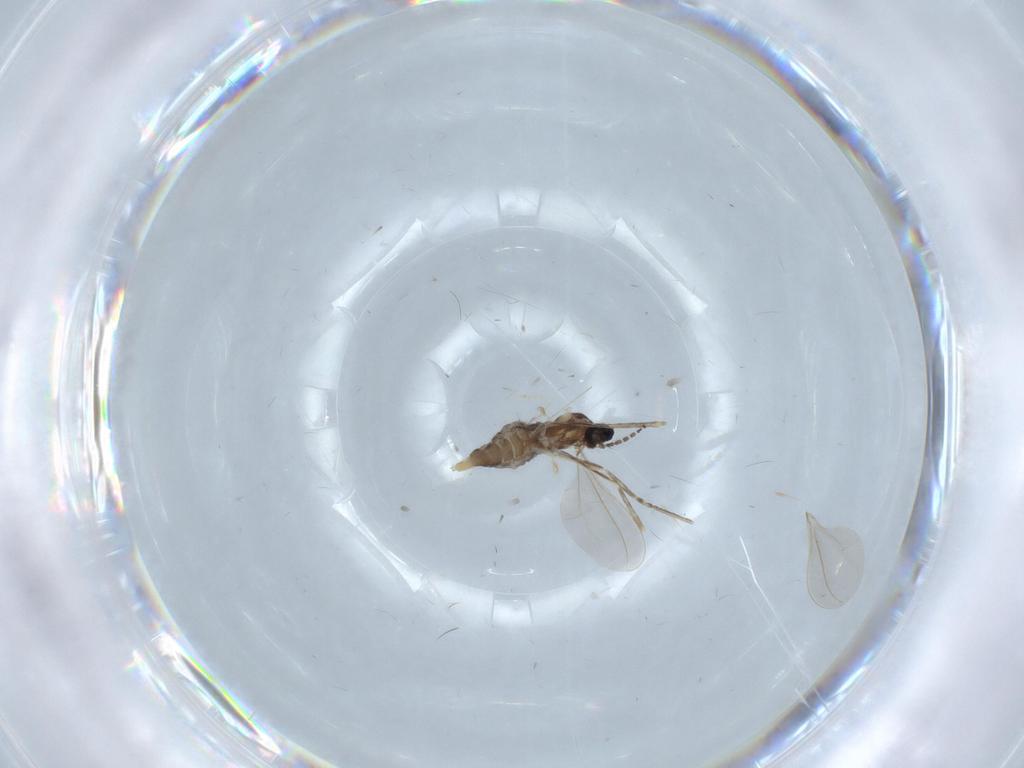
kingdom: Animalia
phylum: Arthropoda
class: Insecta
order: Diptera
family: Cecidomyiidae
